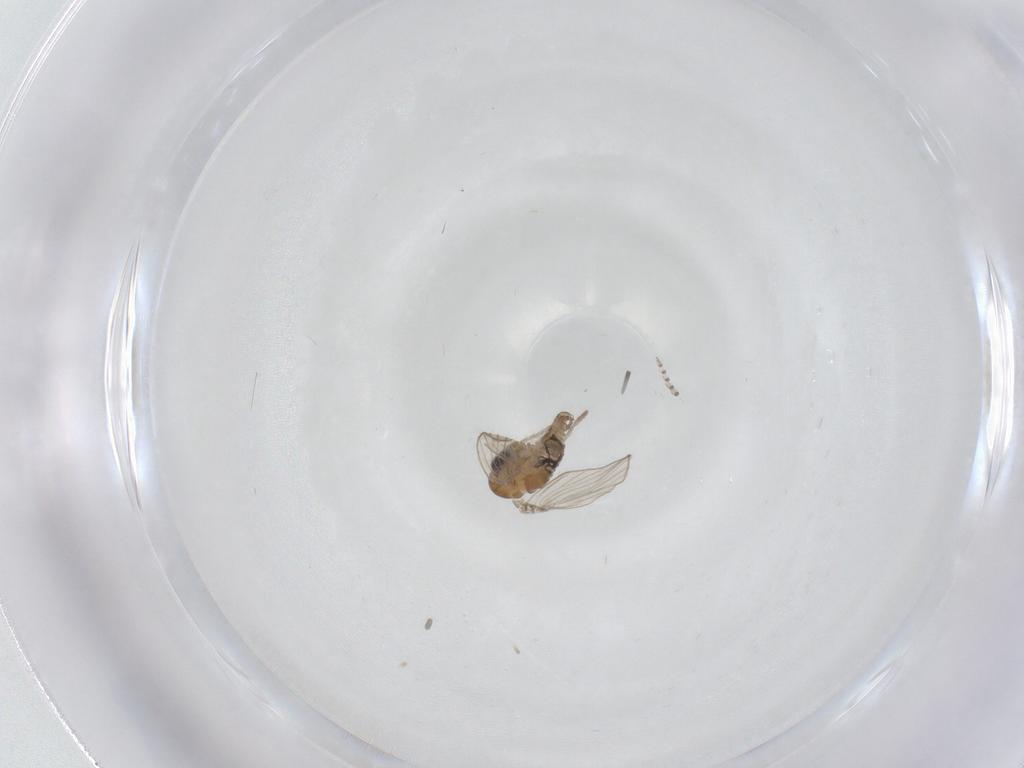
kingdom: Animalia
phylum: Arthropoda
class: Insecta
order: Diptera
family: Psychodidae
